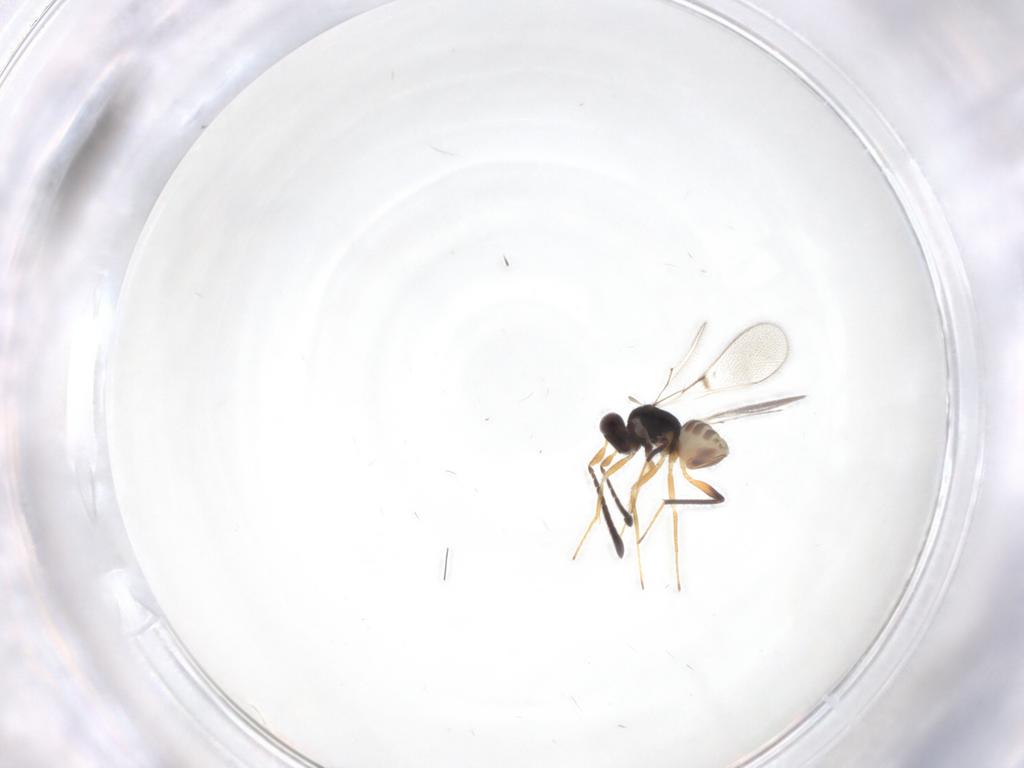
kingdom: Animalia
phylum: Arthropoda
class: Insecta
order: Hymenoptera
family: Mymaridae
